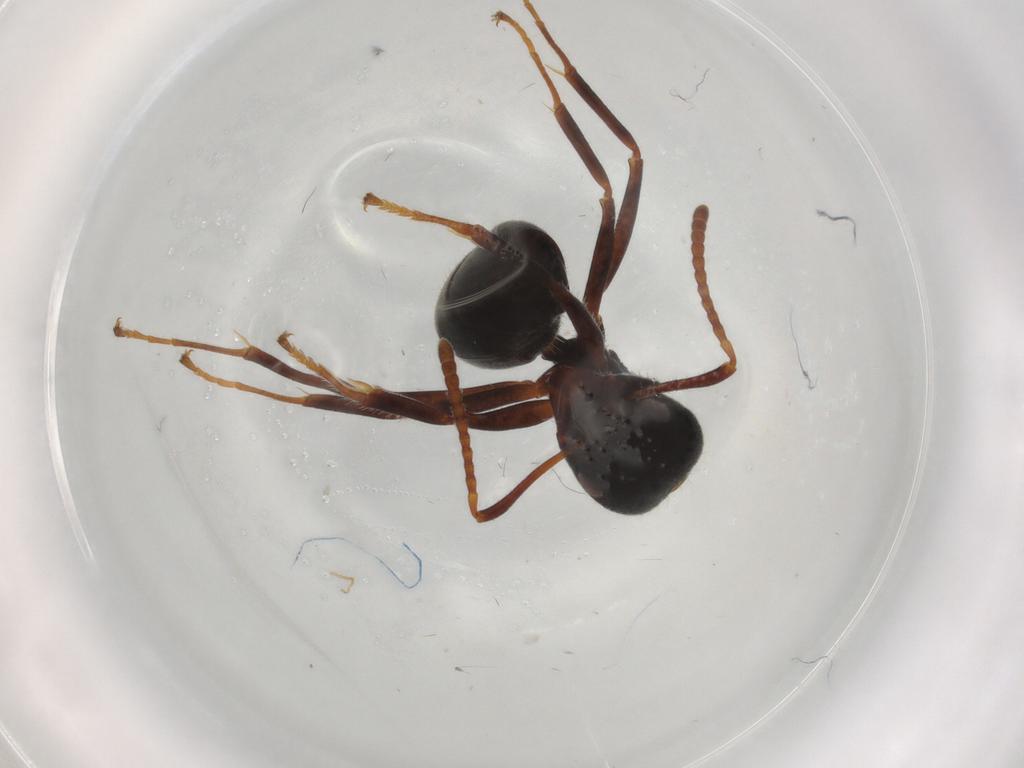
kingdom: Animalia
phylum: Arthropoda
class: Insecta
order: Hymenoptera
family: Formicidae
